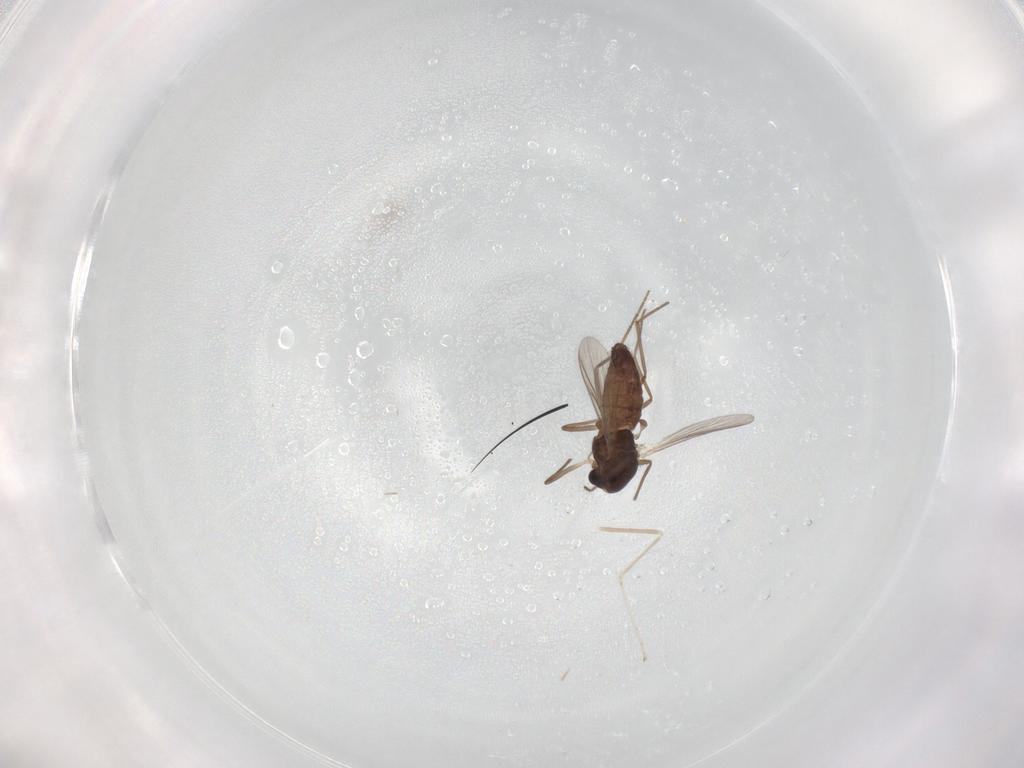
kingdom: Animalia
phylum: Arthropoda
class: Insecta
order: Diptera
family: Chironomidae
